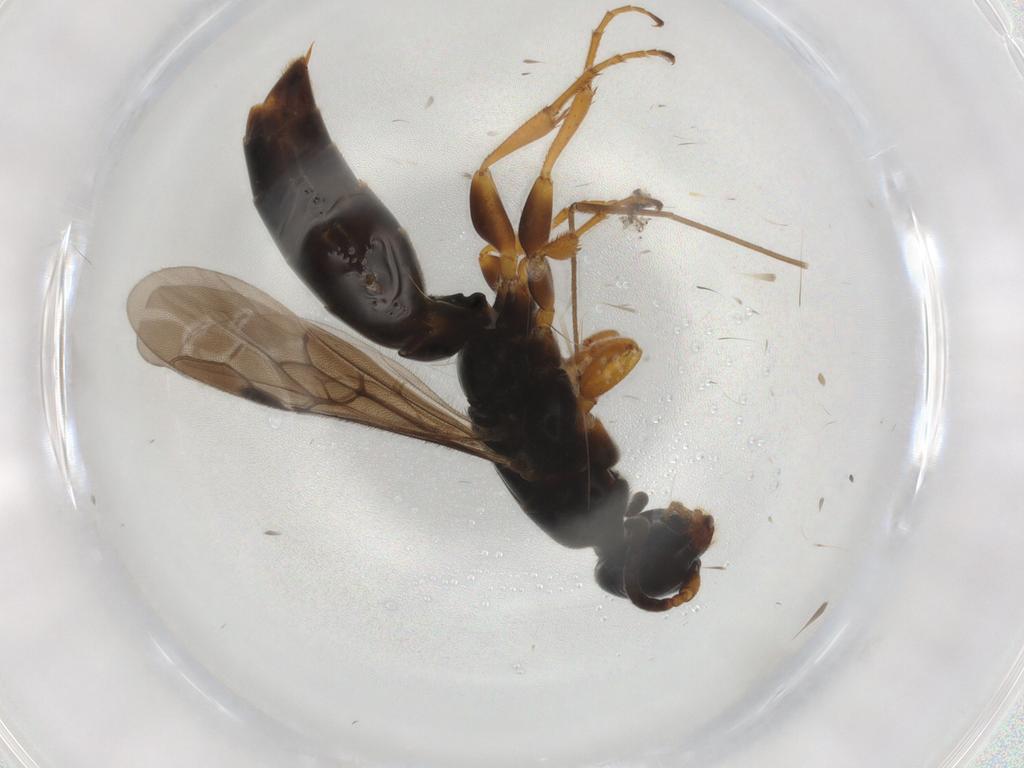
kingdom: Animalia
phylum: Arthropoda
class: Insecta
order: Hymenoptera
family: Sierolomorphidae
